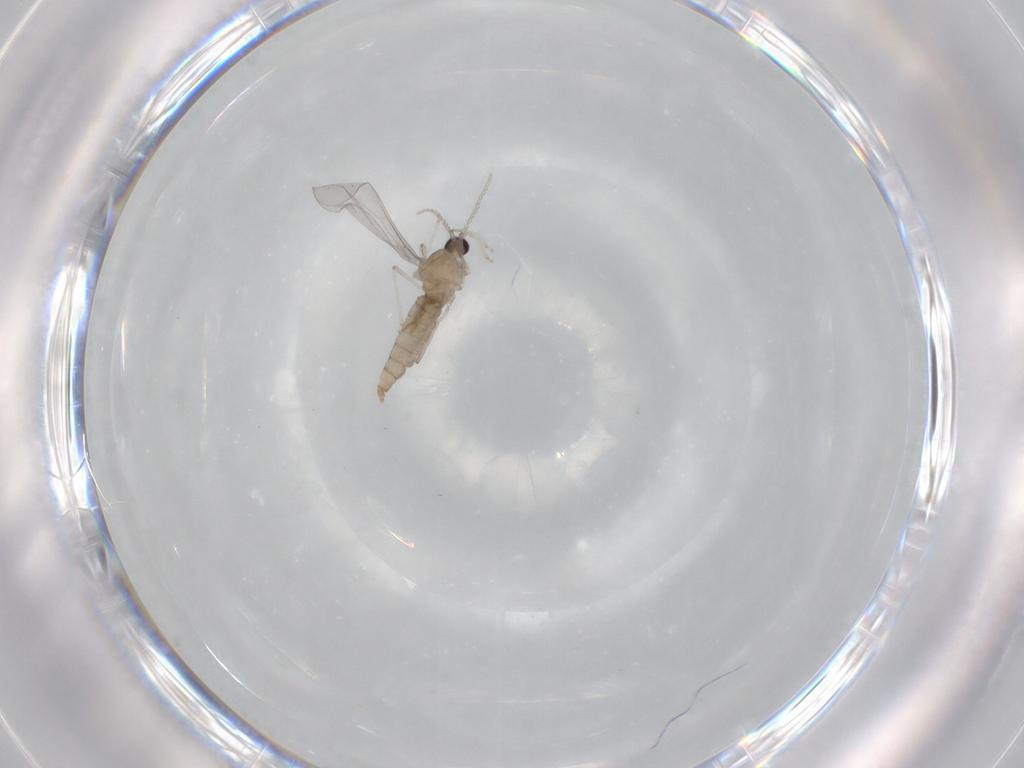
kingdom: Animalia
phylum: Arthropoda
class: Insecta
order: Diptera
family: Cecidomyiidae
